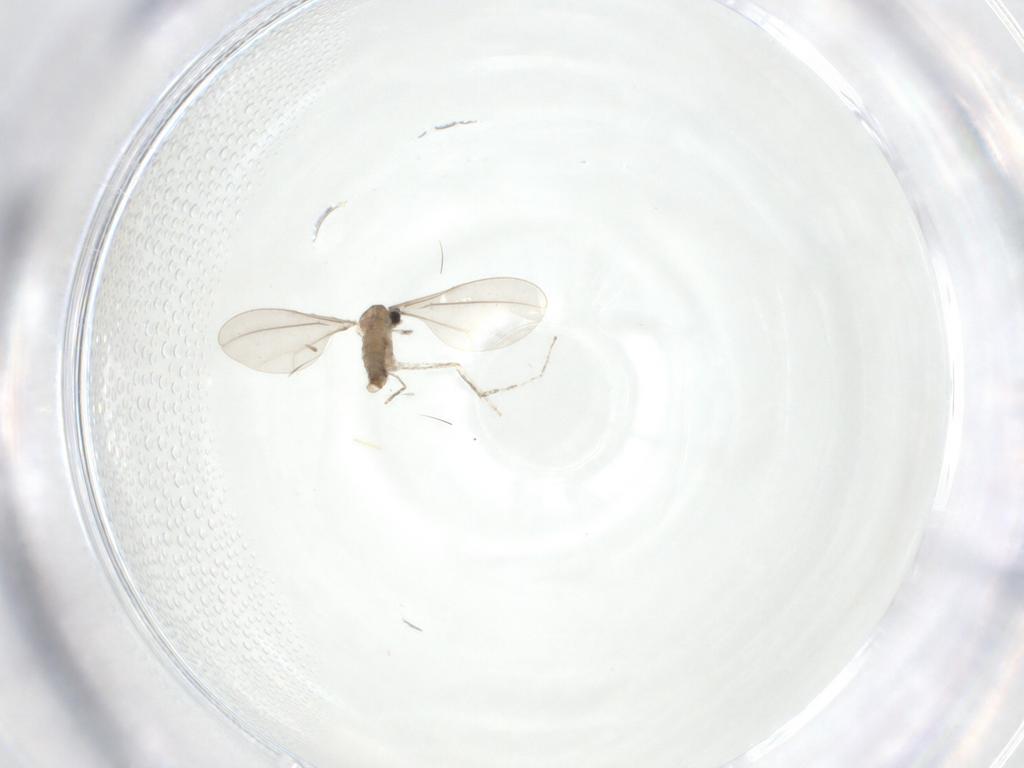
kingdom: Animalia
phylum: Arthropoda
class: Insecta
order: Diptera
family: Cecidomyiidae
